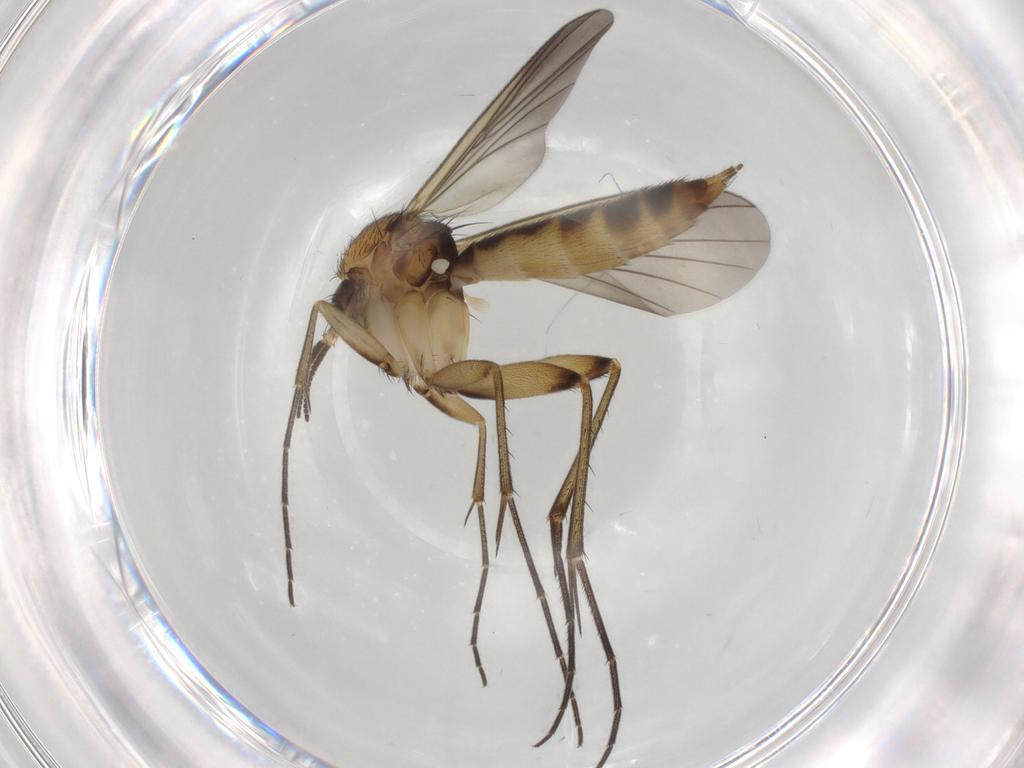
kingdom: Animalia
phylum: Arthropoda
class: Insecta
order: Diptera
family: Mycetophilidae
